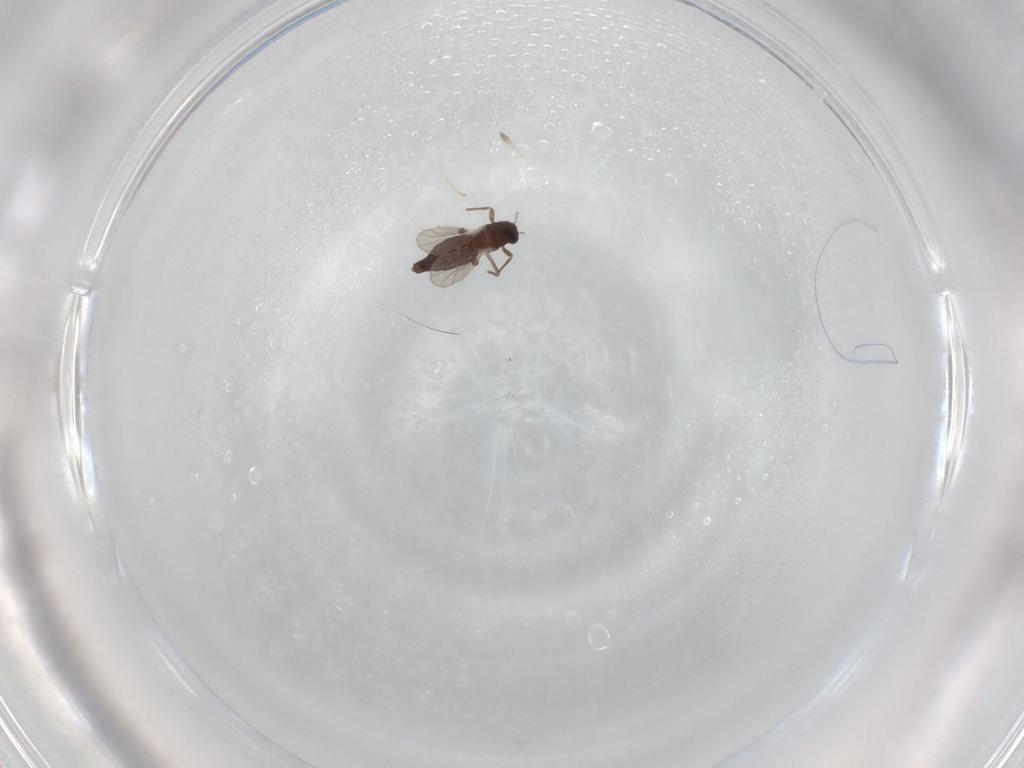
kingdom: Animalia
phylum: Arthropoda
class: Insecta
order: Diptera
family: Chironomidae
